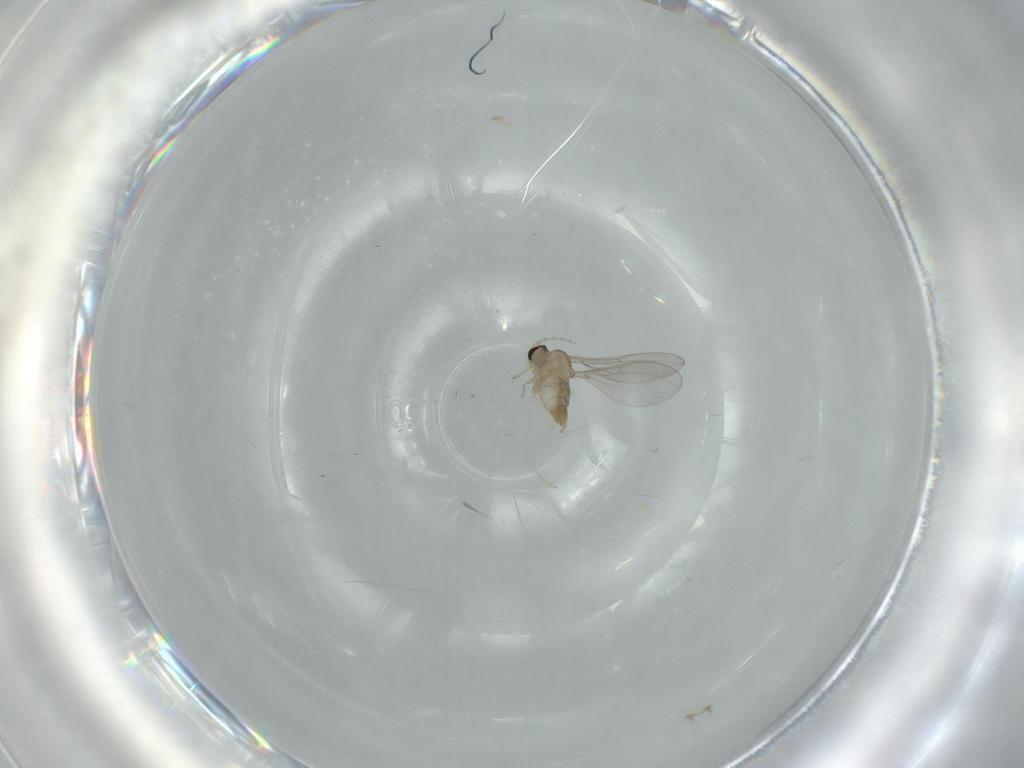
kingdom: Animalia
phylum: Arthropoda
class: Insecta
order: Diptera
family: Cecidomyiidae
